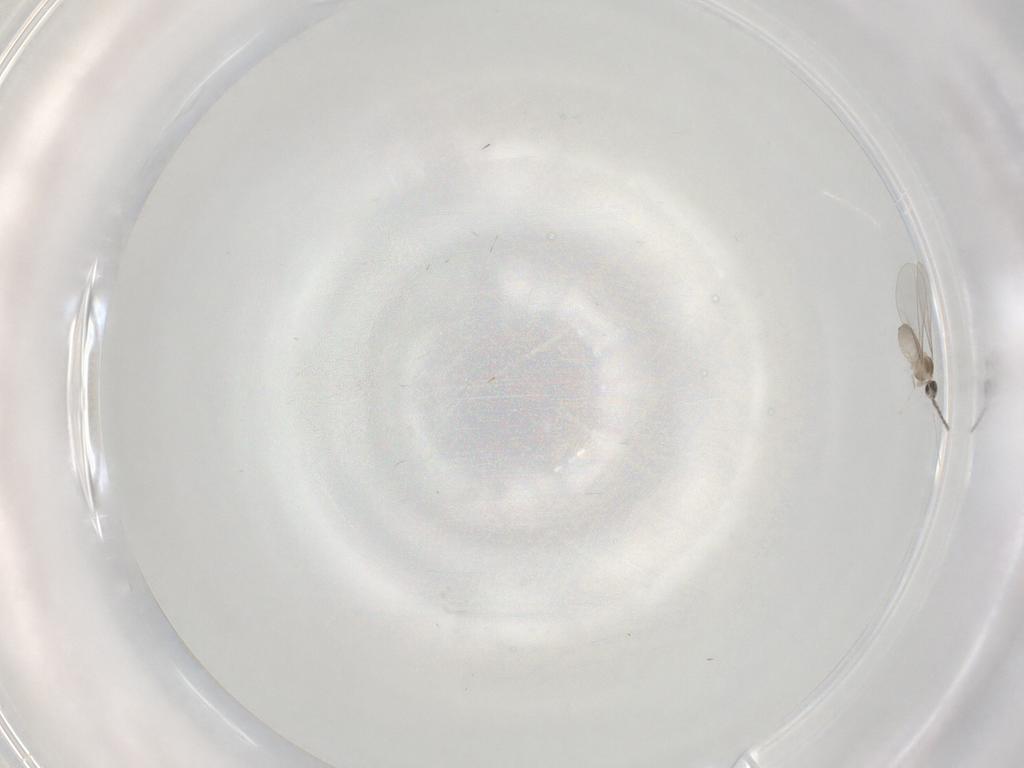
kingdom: Animalia
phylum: Arthropoda
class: Insecta
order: Diptera
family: Cecidomyiidae
